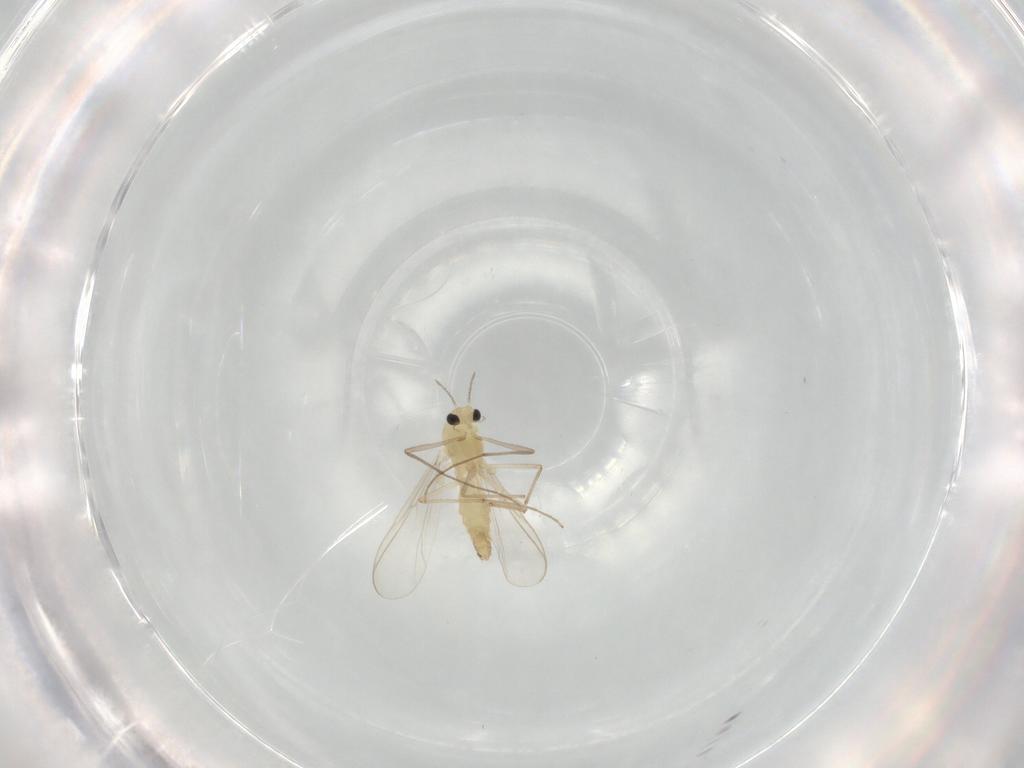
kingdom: Animalia
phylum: Arthropoda
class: Insecta
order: Diptera
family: Chironomidae
